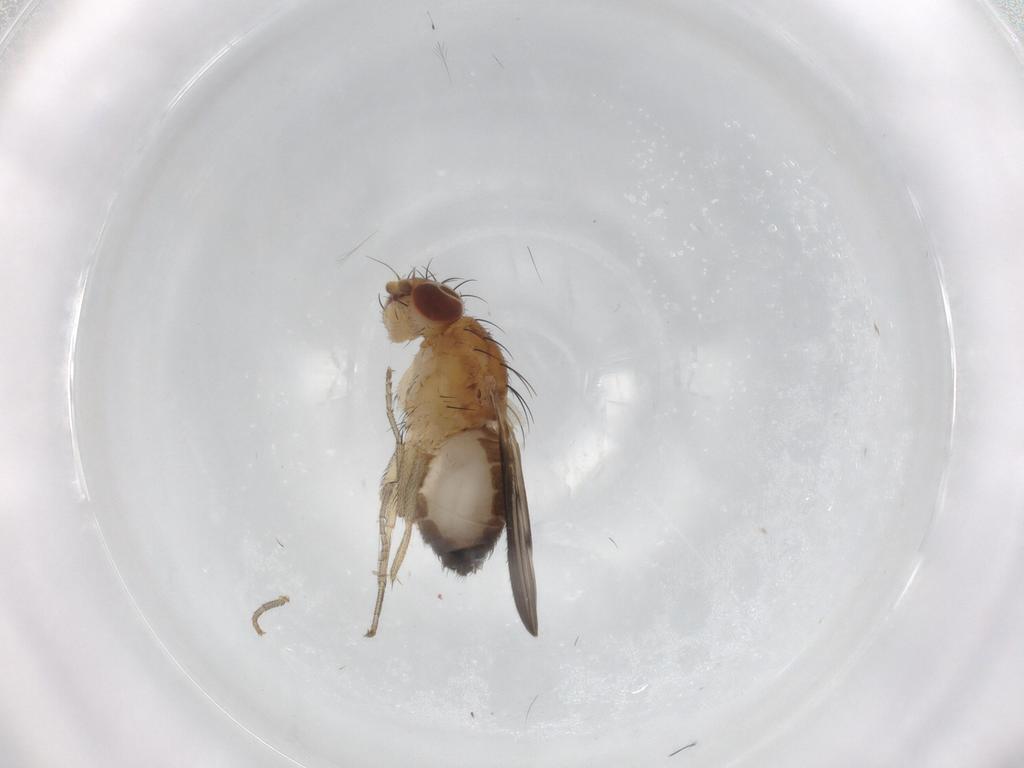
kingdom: Animalia
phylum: Arthropoda
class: Insecta
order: Diptera
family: Heleomyzidae
